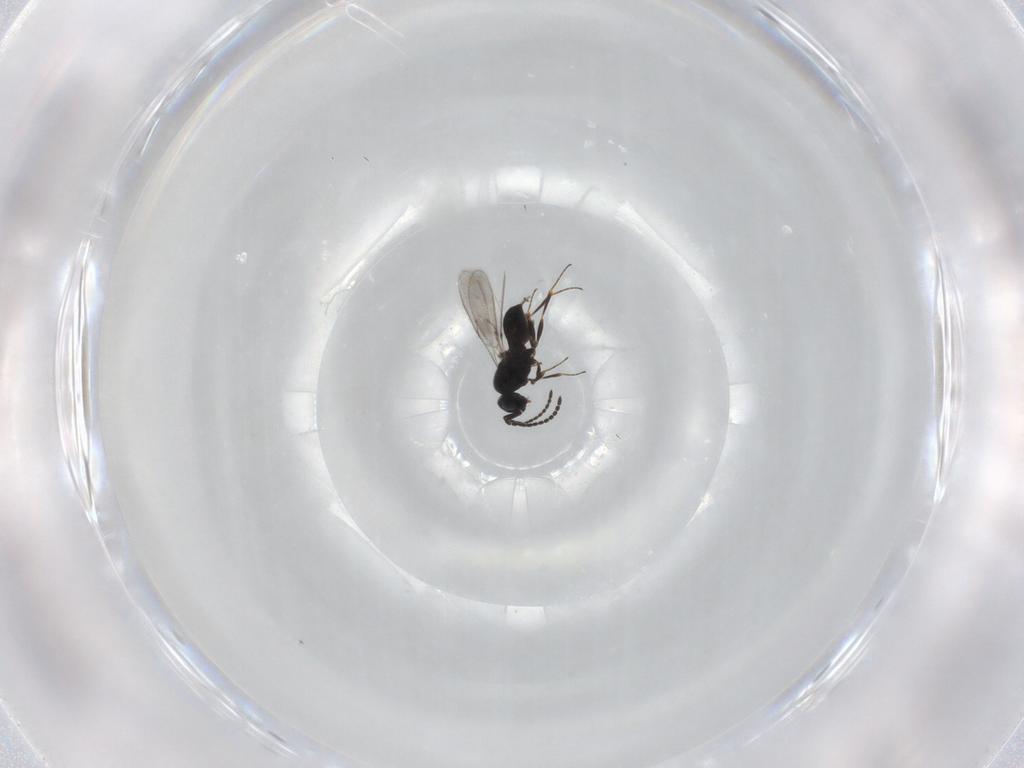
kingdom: Animalia
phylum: Arthropoda
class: Insecta
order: Hymenoptera
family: Scelionidae
